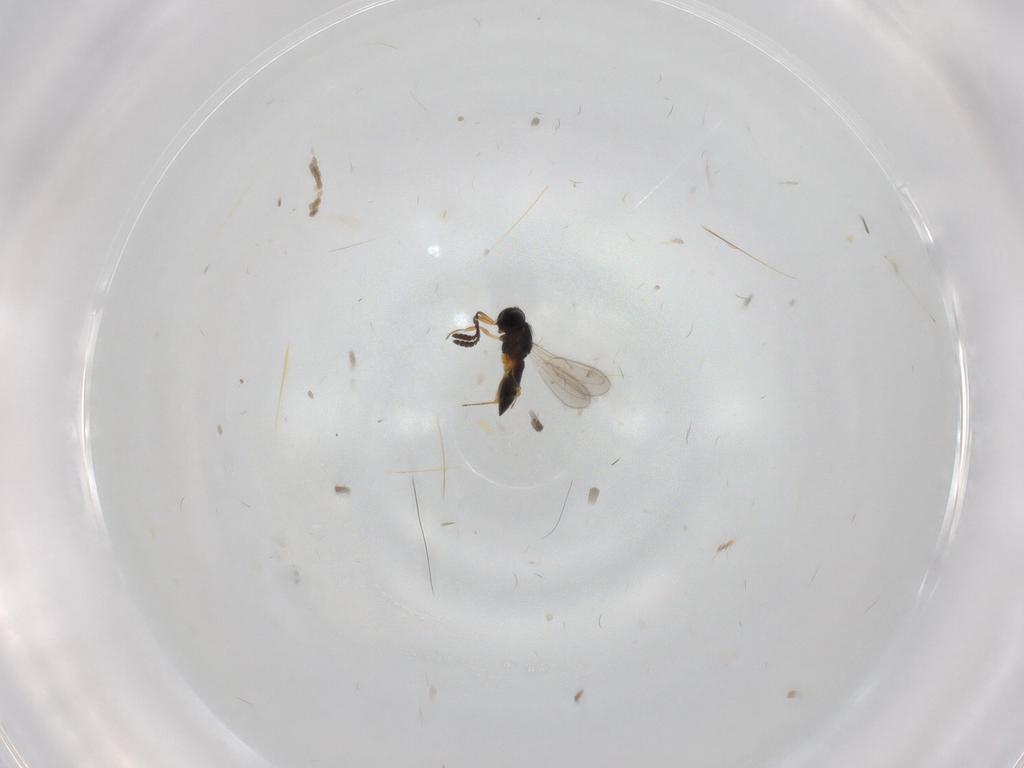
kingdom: Animalia
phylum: Arthropoda
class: Insecta
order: Hymenoptera
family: Scelionidae
